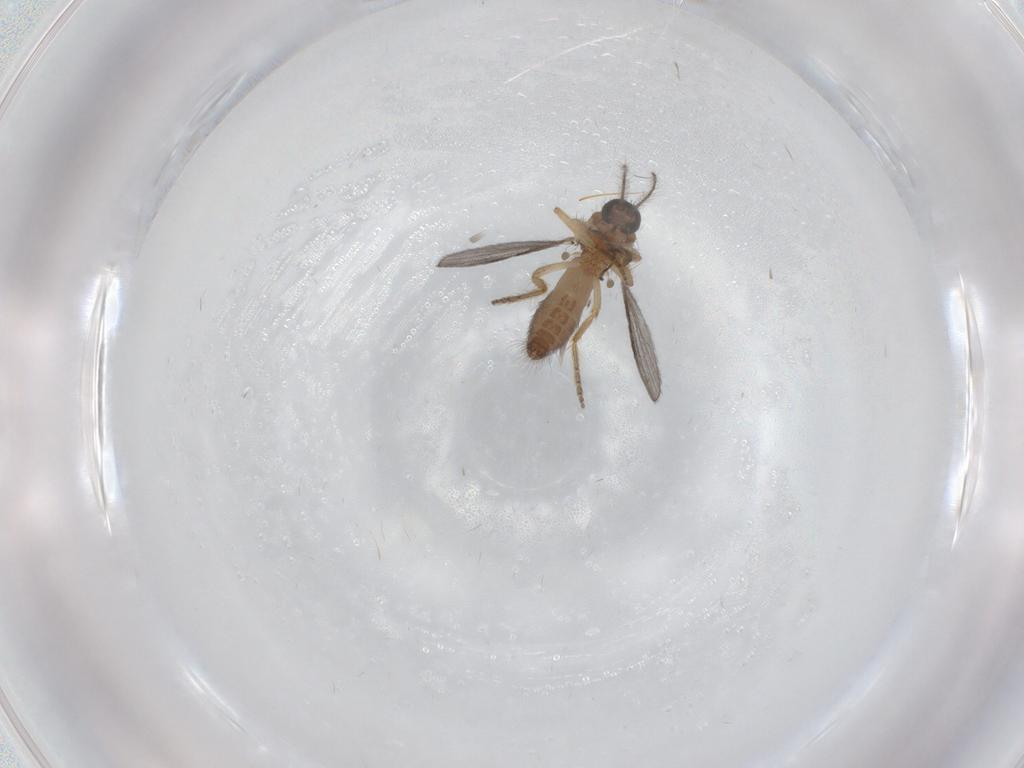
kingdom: Animalia
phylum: Arthropoda
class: Insecta
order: Diptera
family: Ceratopogonidae
